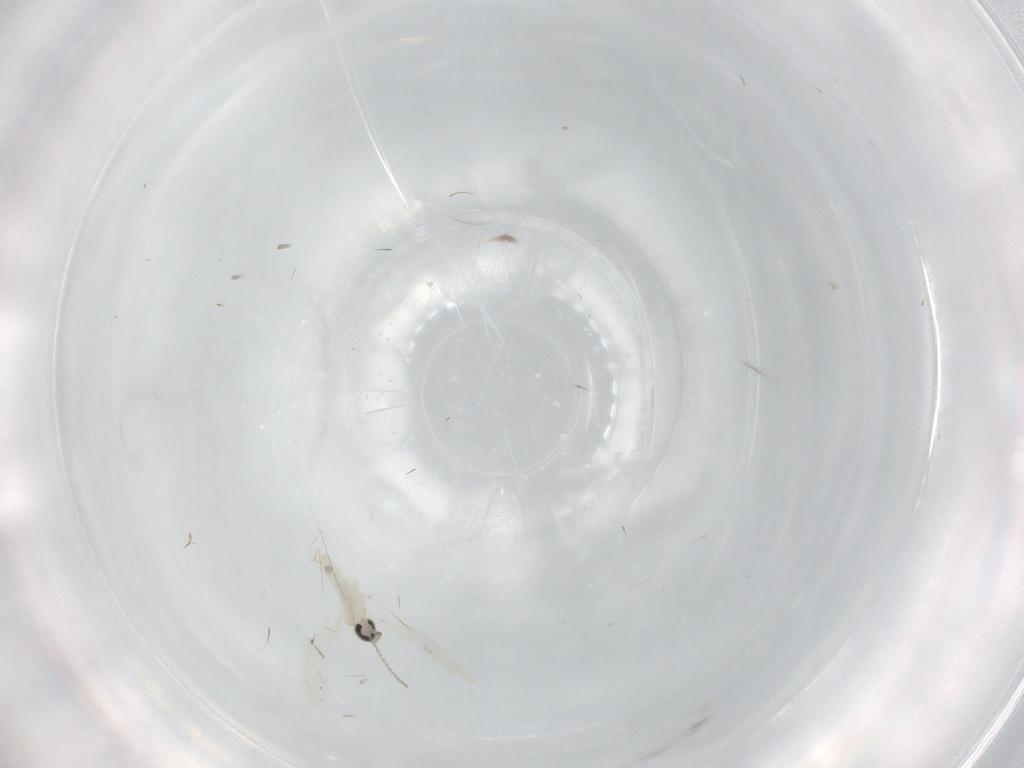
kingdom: Animalia
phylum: Arthropoda
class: Insecta
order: Diptera
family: Cecidomyiidae
